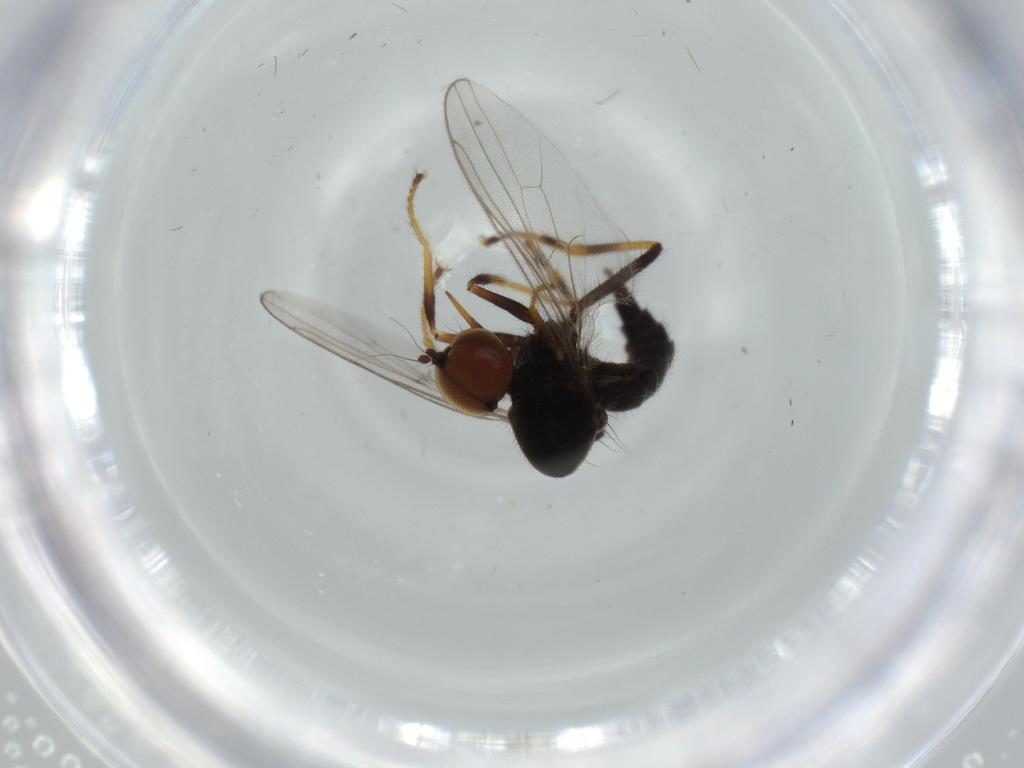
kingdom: Animalia
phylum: Arthropoda
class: Insecta
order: Diptera
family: Hybotidae
